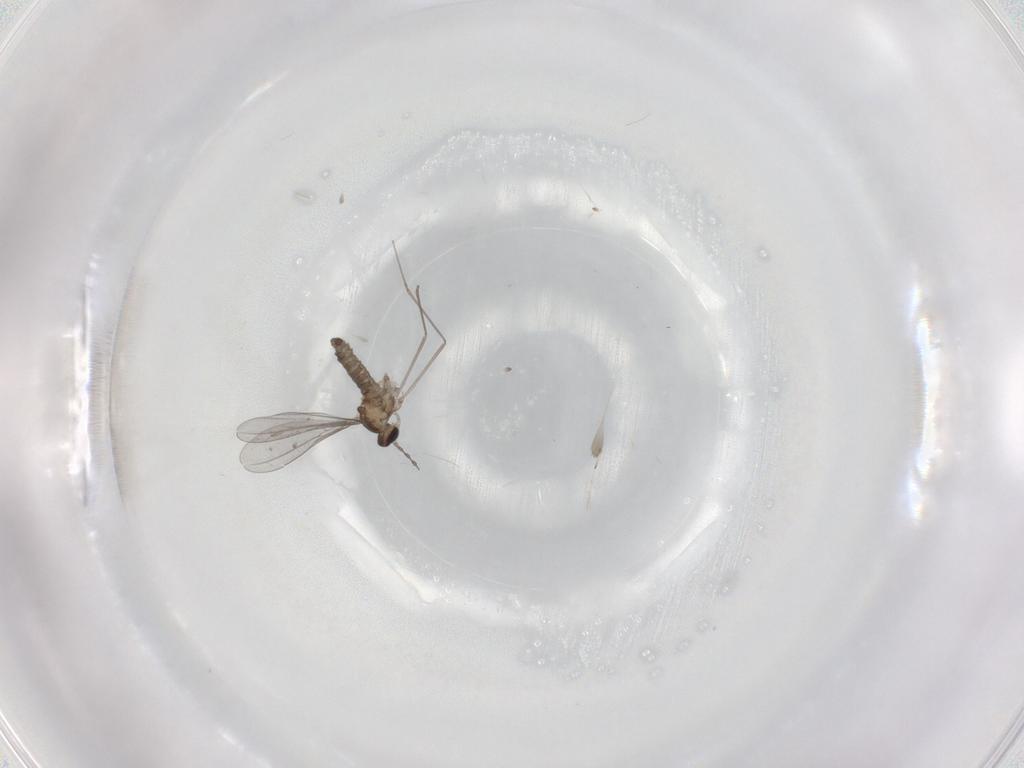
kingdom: Animalia
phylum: Arthropoda
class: Insecta
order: Diptera
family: Cecidomyiidae
